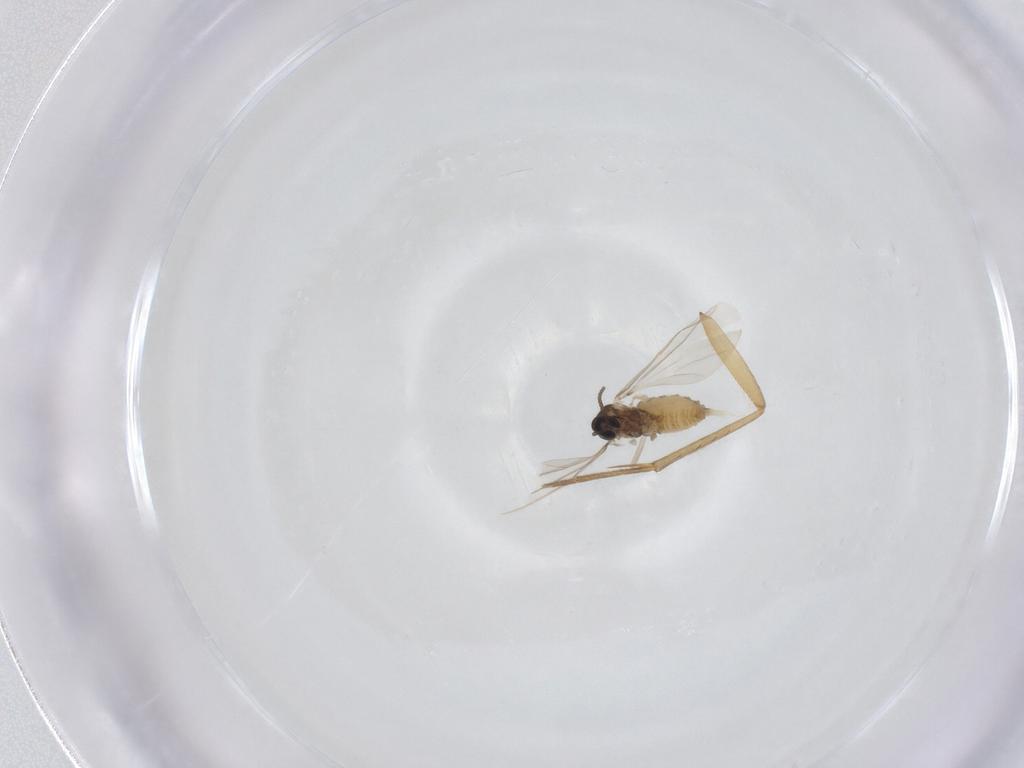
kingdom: Animalia
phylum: Arthropoda
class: Insecta
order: Diptera
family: Cecidomyiidae
